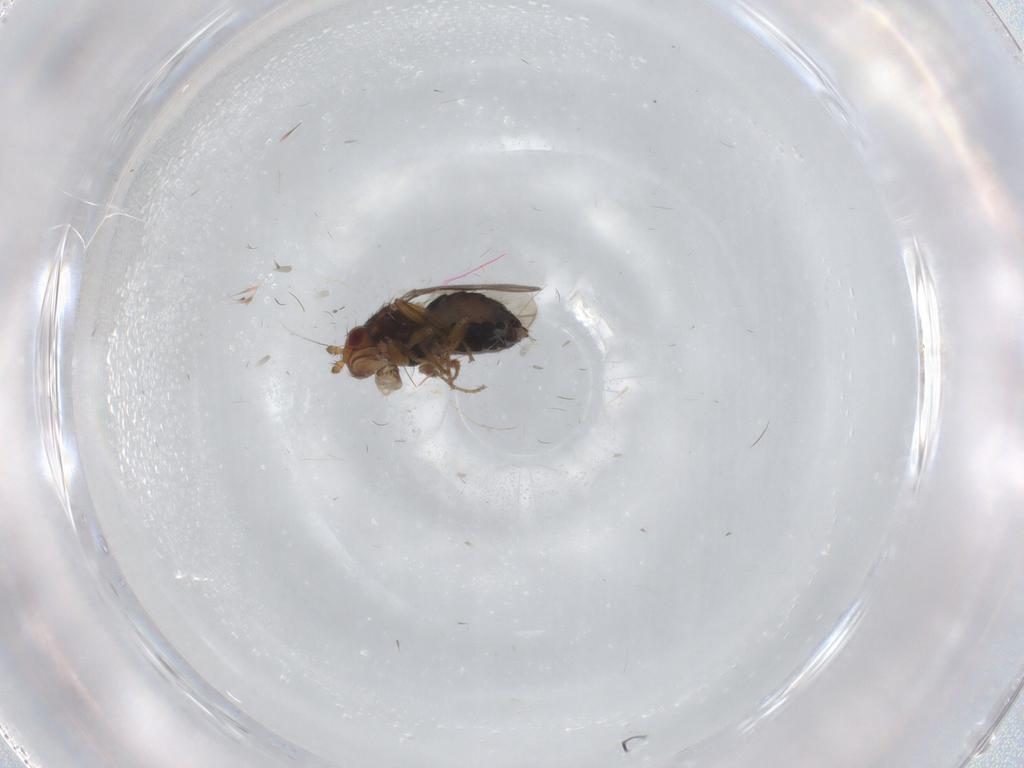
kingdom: Animalia
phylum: Arthropoda
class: Insecta
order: Diptera
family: Sphaeroceridae
